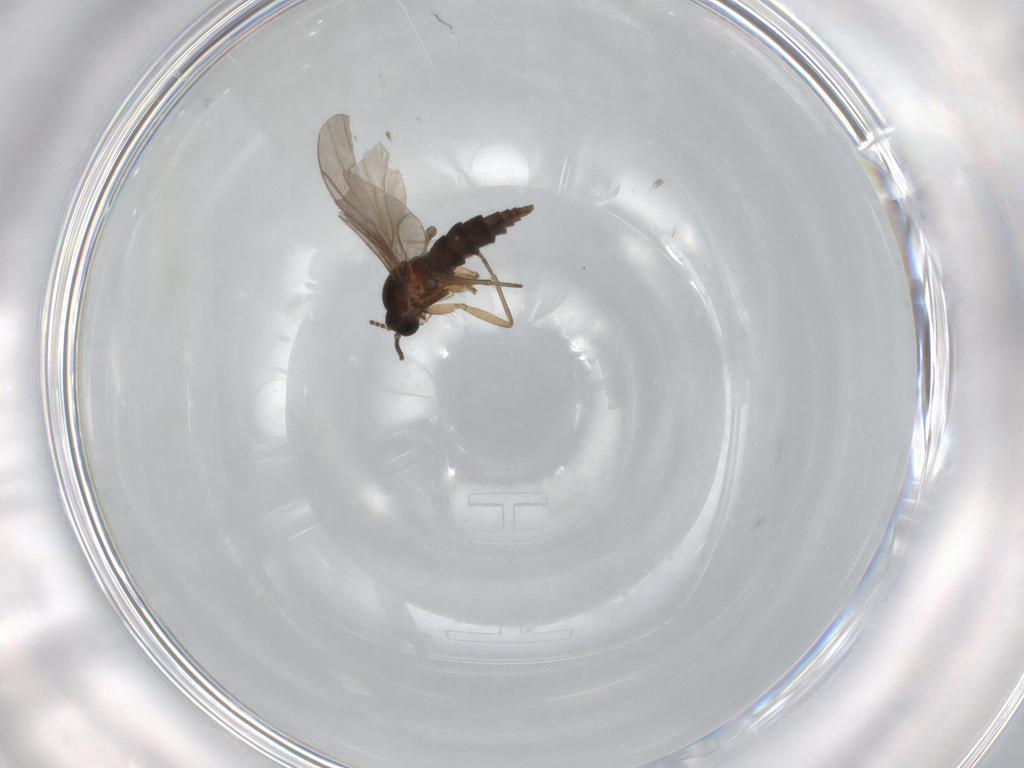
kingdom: Animalia
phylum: Arthropoda
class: Insecta
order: Diptera
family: Sciaridae
